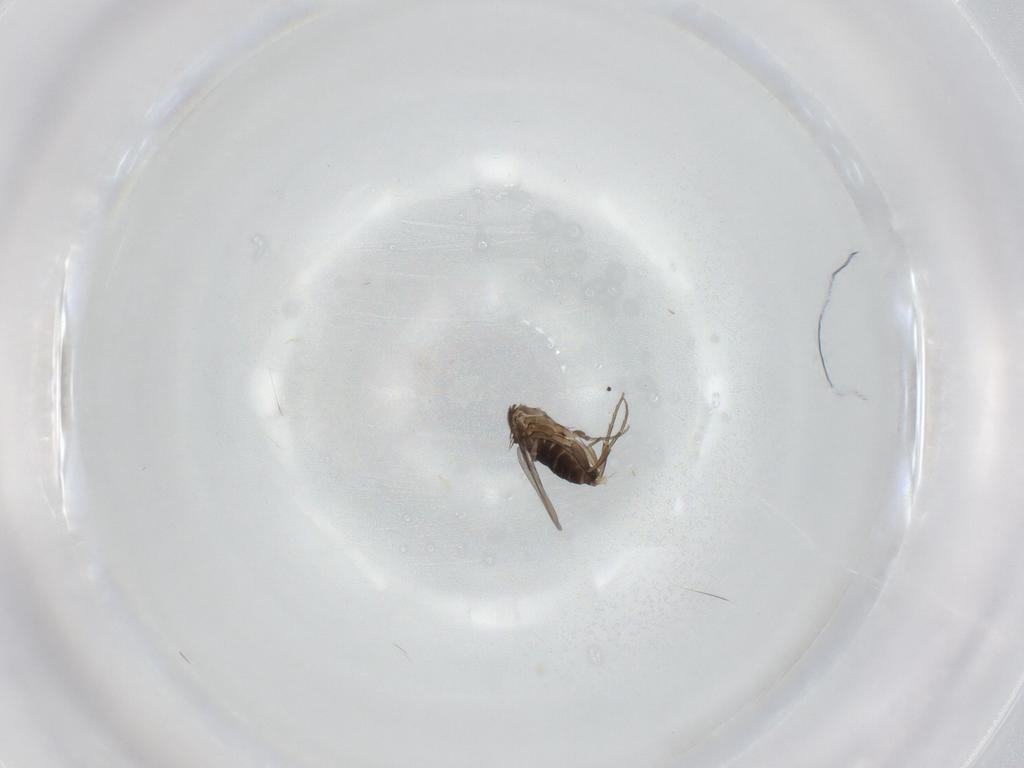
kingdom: Animalia
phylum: Arthropoda
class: Insecta
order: Diptera
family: Phoridae
